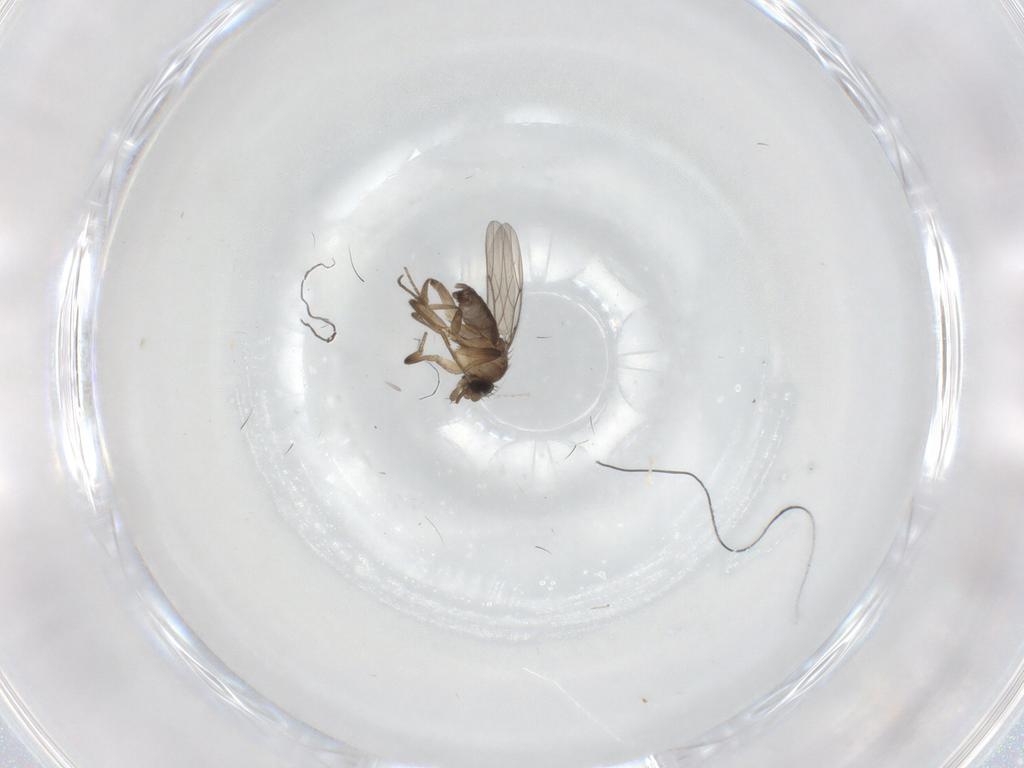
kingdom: Animalia
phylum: Arthropoda
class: Insecta
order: Diptera
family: Phoridae
